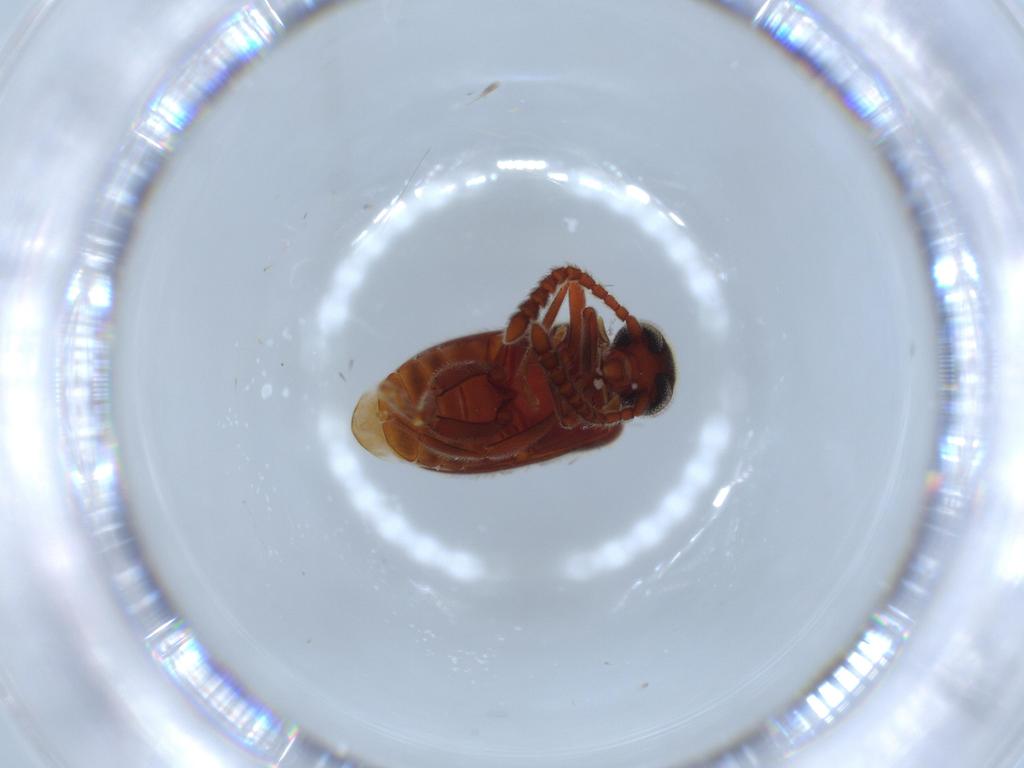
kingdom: Animalia
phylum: Arthropoda
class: Insecta
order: Coleoptera
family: Aderidae
